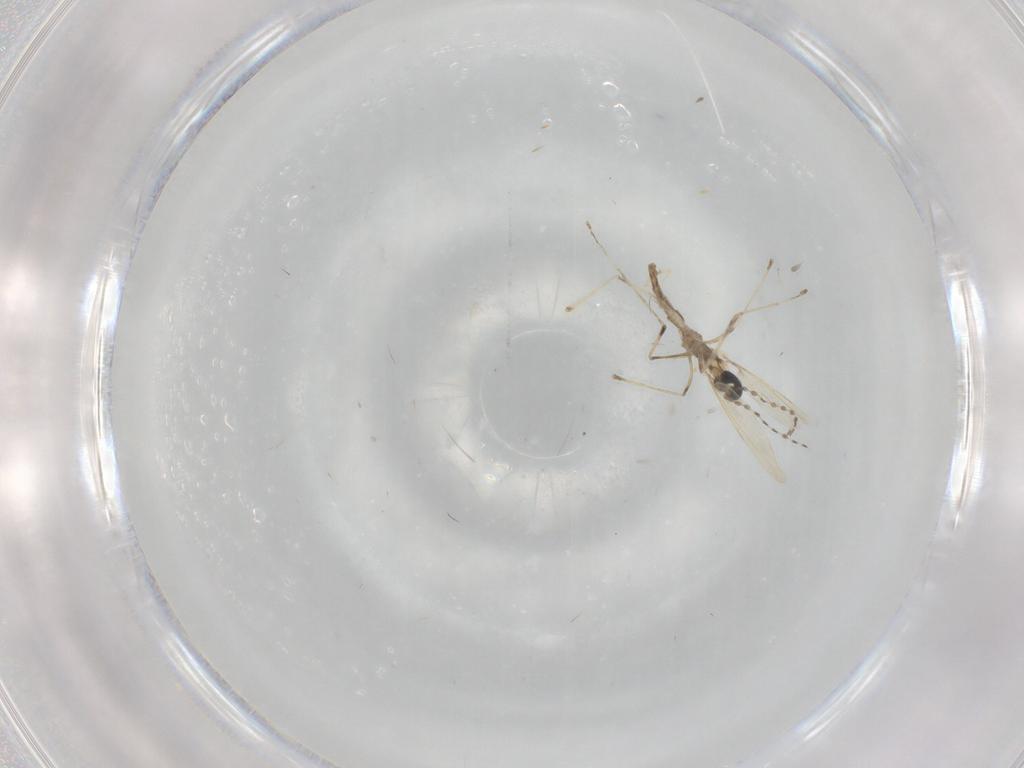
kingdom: Animalia
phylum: Arthropoda
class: Insecta
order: Diptera
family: Cecidomyiidae
